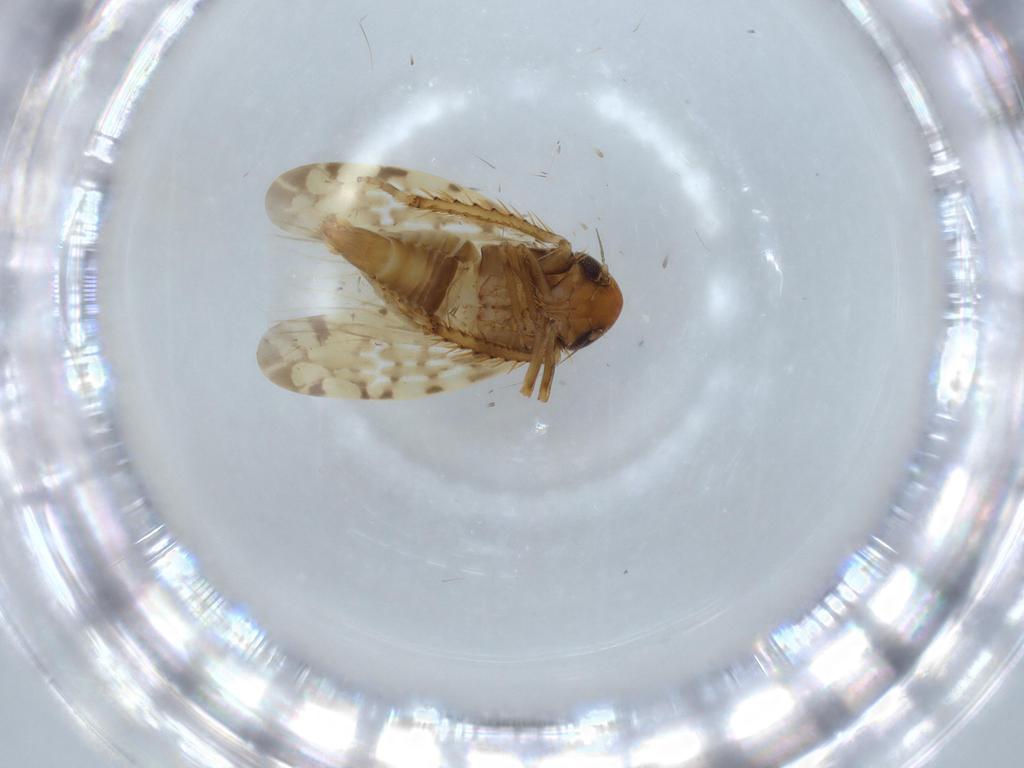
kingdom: Animalia
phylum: Arthropoda
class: Insecta
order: Hemiptera
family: Cicadellidae
